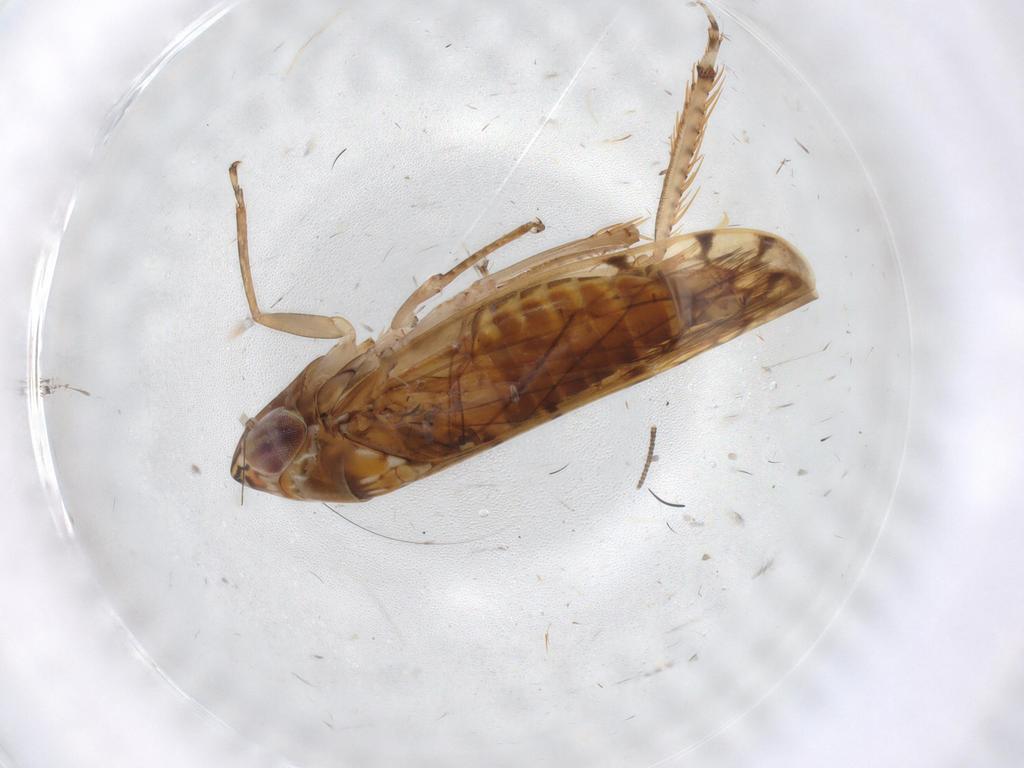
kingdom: Animalia
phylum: Arthropoda
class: Insecta
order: Hemiptera
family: Cicadellidae
